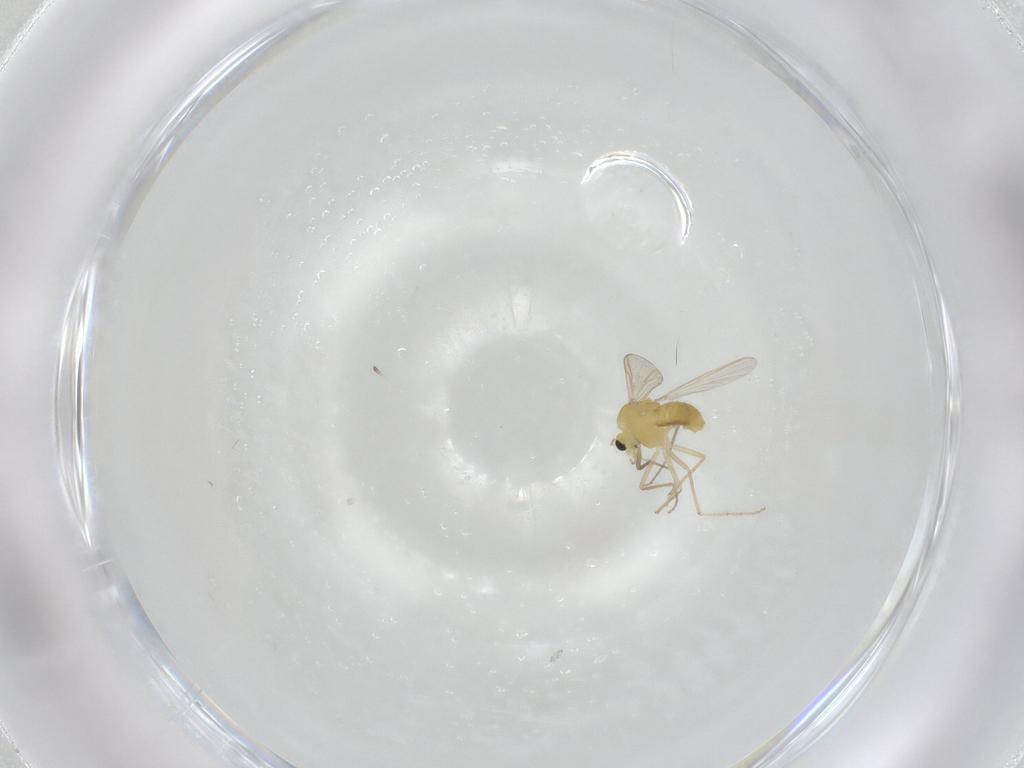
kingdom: Animalia
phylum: Arthropoda
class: Insecta
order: Diptera
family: Chironomidae
